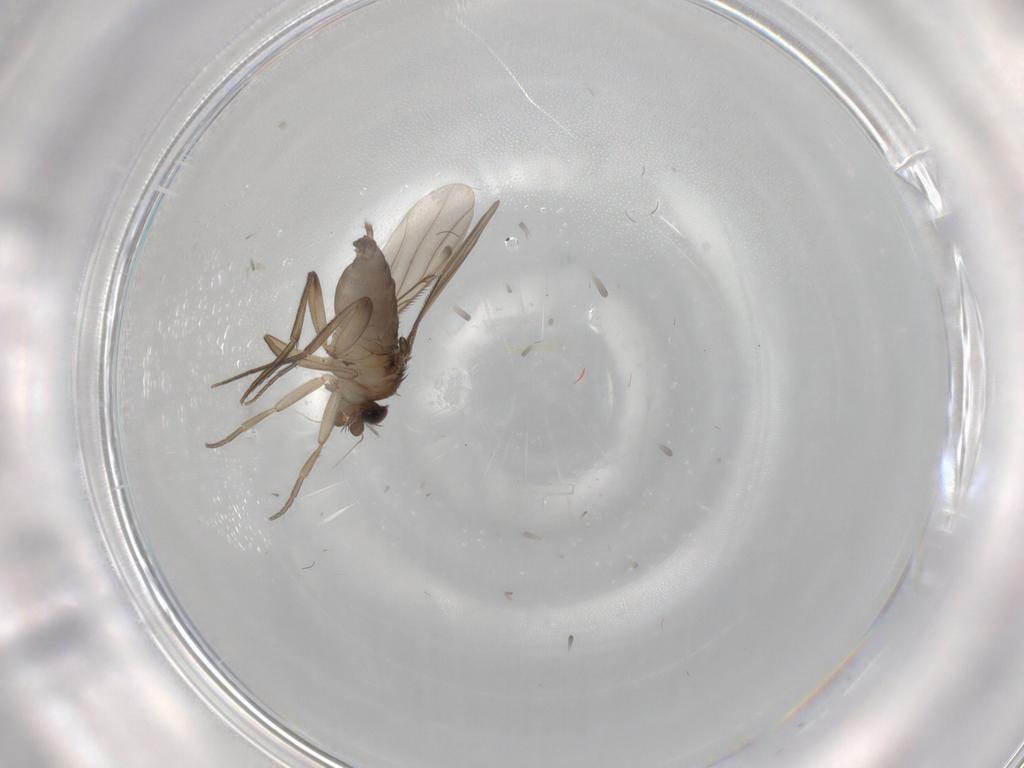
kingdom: Animalia
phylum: Arthropoda
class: Insecta
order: Diptera
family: Phoridae
